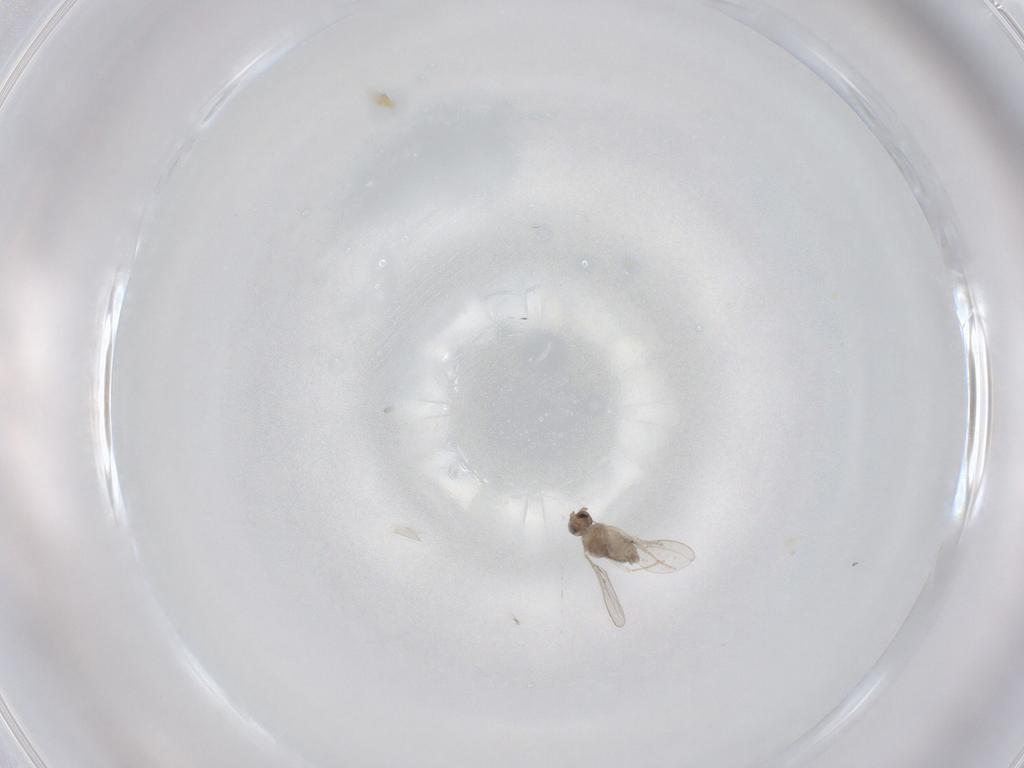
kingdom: Animalia
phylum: Arthropoda
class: Insecta
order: Diptera
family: Cecidomyiidae
